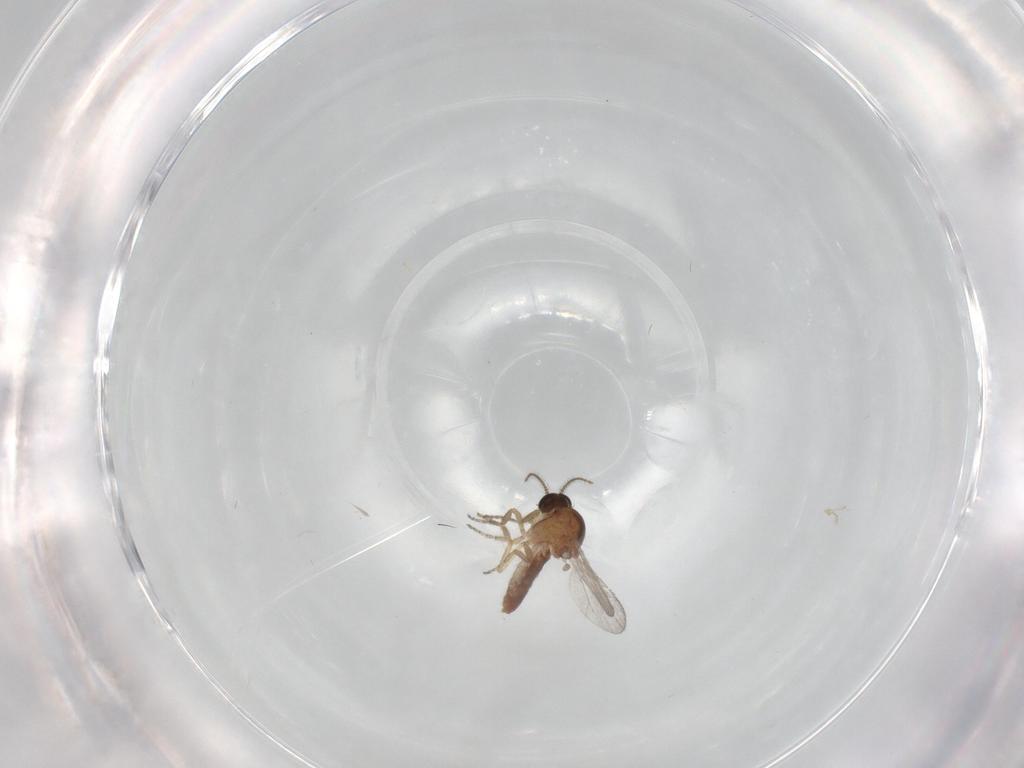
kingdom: Animalia
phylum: Arthropoda
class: Insecta
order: Diptera
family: Ceratopogonidae
